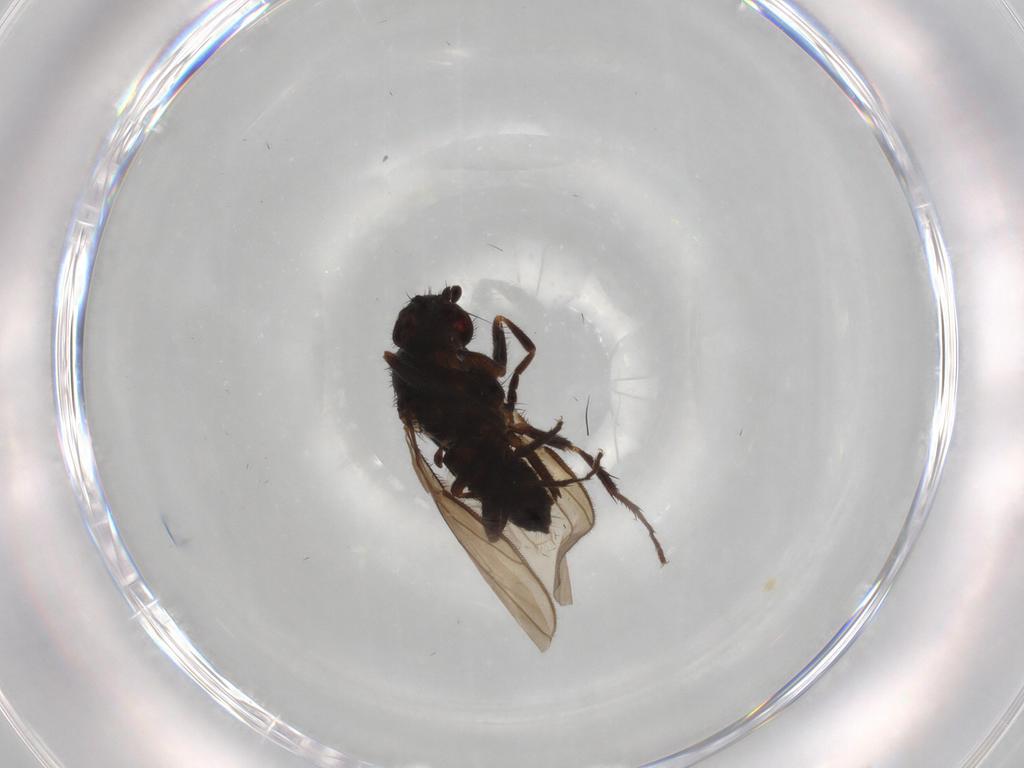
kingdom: Animalia
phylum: Arthropoda
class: Insecta
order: Diptera
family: Sphaeroceridae
